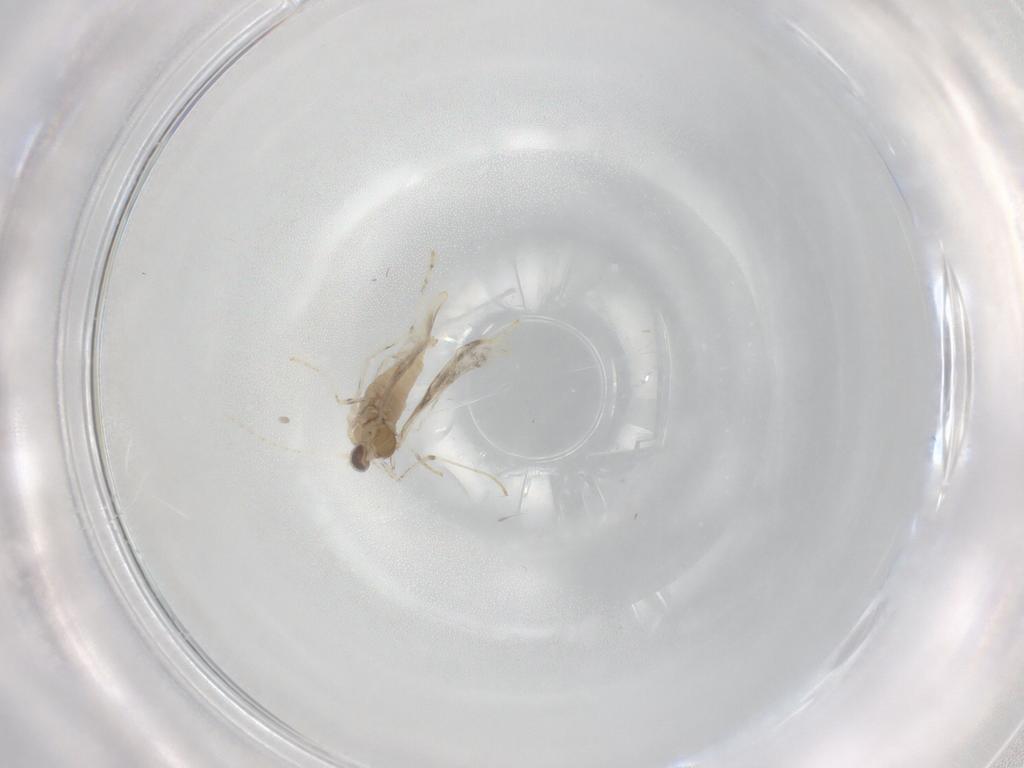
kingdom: Animalia
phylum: Arthropoda
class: Insecta
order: Diptera
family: Cecidomyiidae
